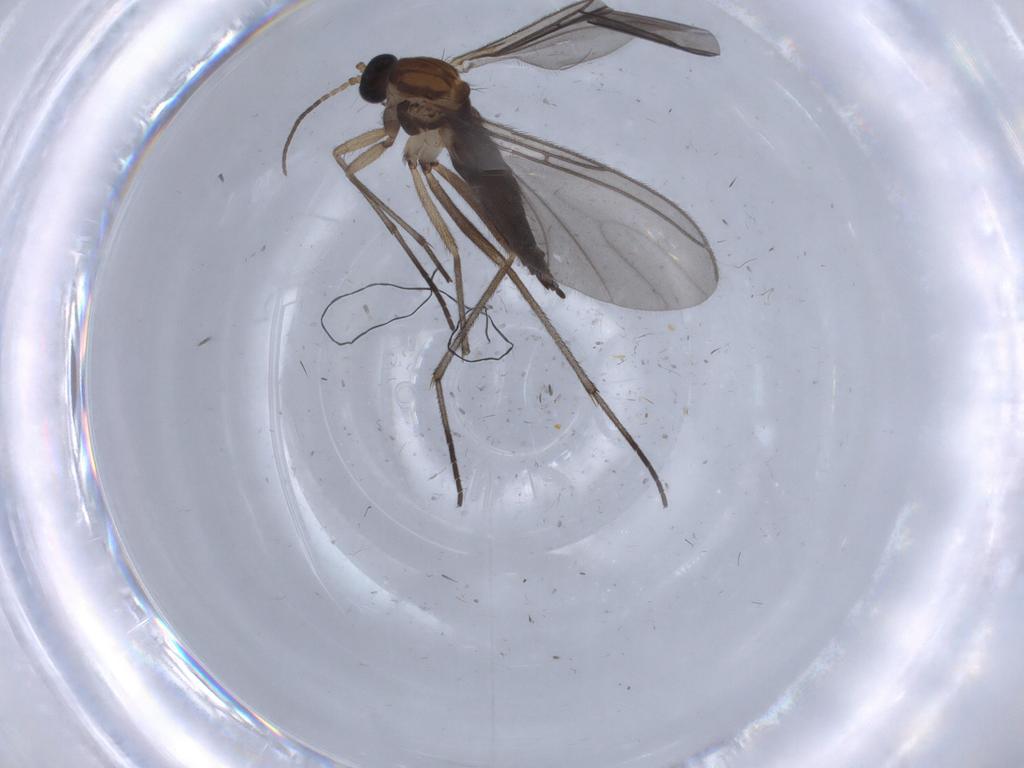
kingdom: Animalia
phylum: Arthropoda
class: Insecta
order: Diptera
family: Sciaridae
